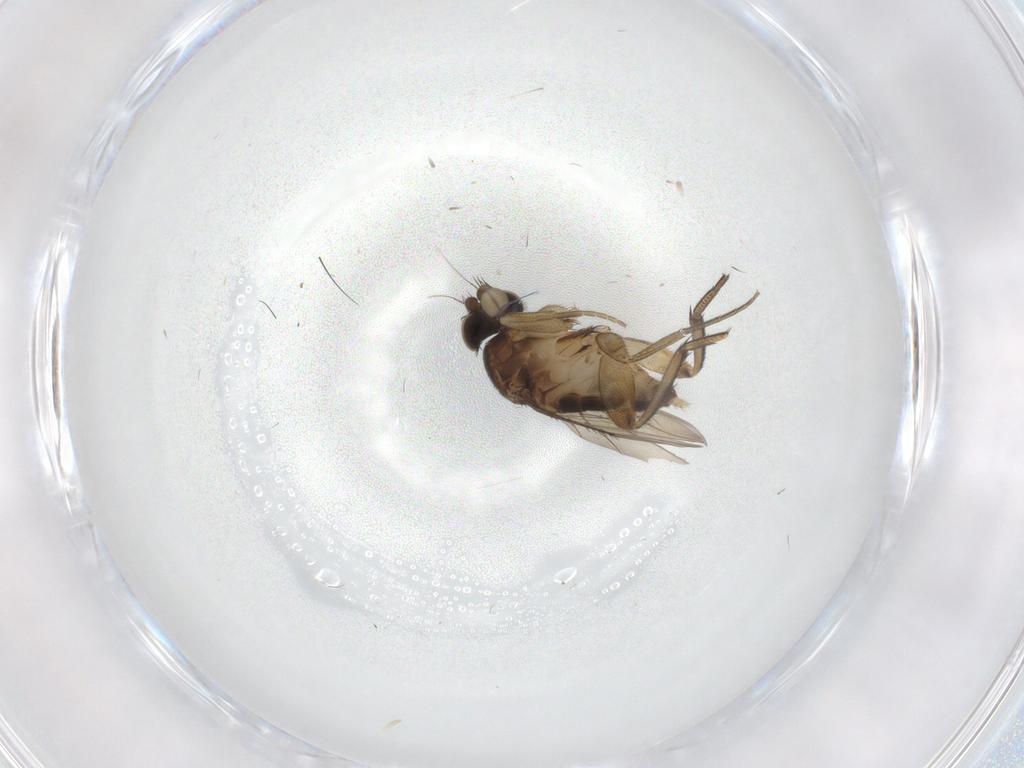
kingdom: Animalia
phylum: Arthropoda
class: Insecta
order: Diptera
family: Phoridae
